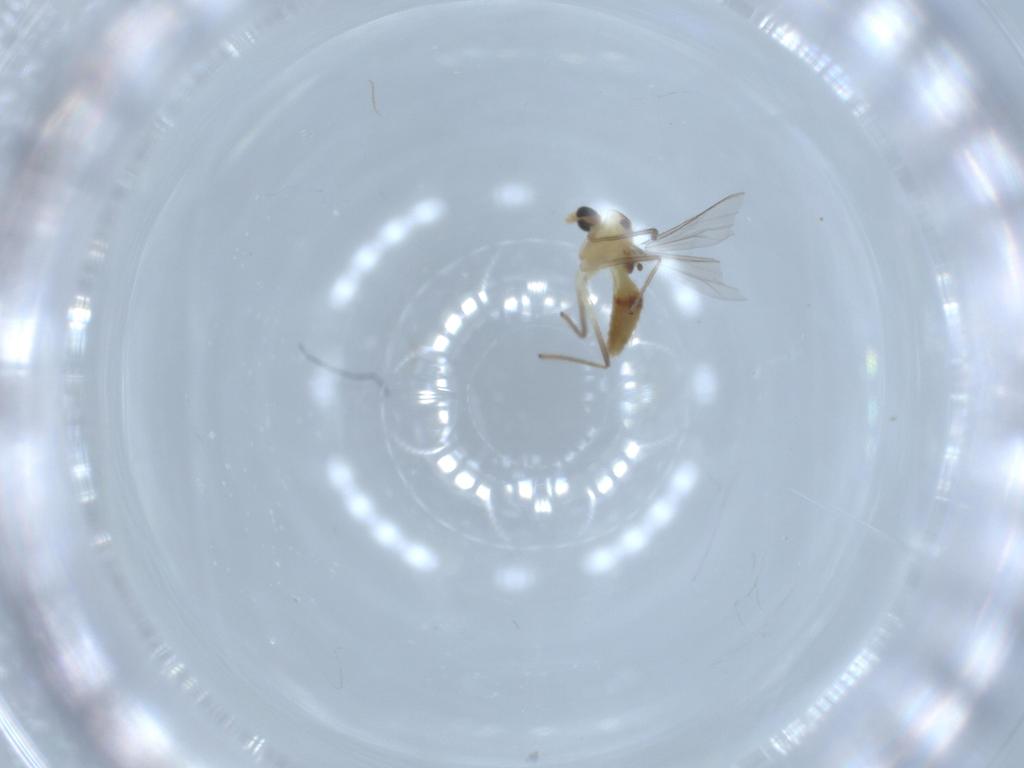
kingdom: Animalia
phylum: Arthropoda
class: Insecta
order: Diptera
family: Chironomidae
